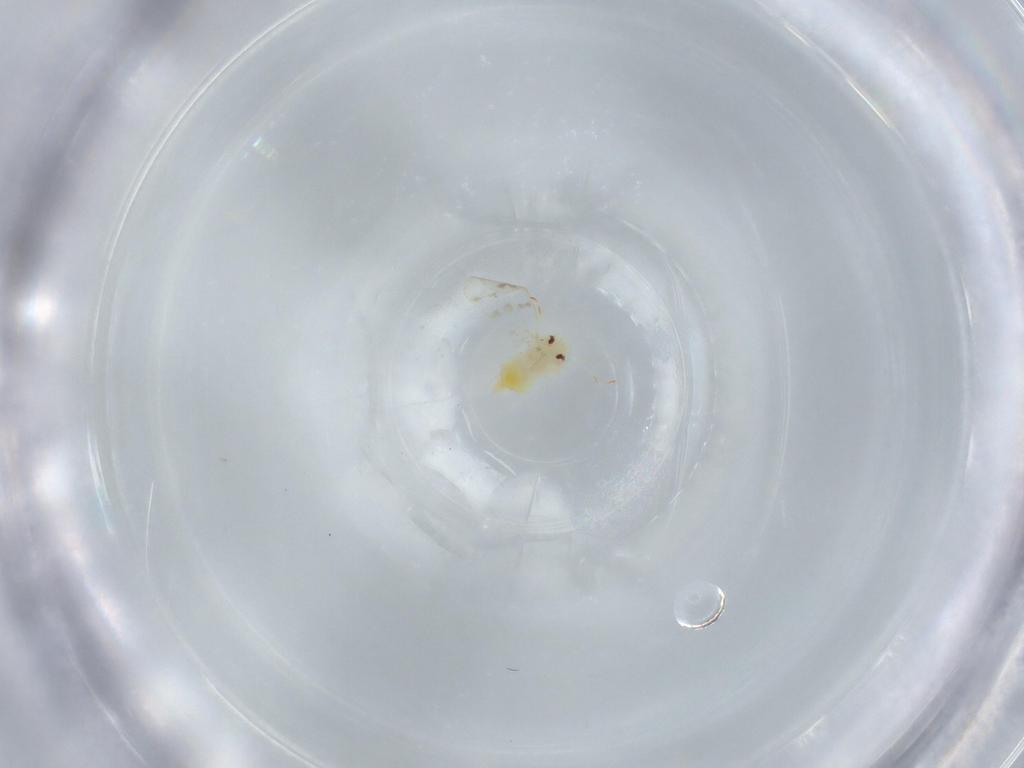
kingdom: Animalia
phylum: Arthropoda
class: Insecta
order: Hemiptera
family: Aleyrodidae
